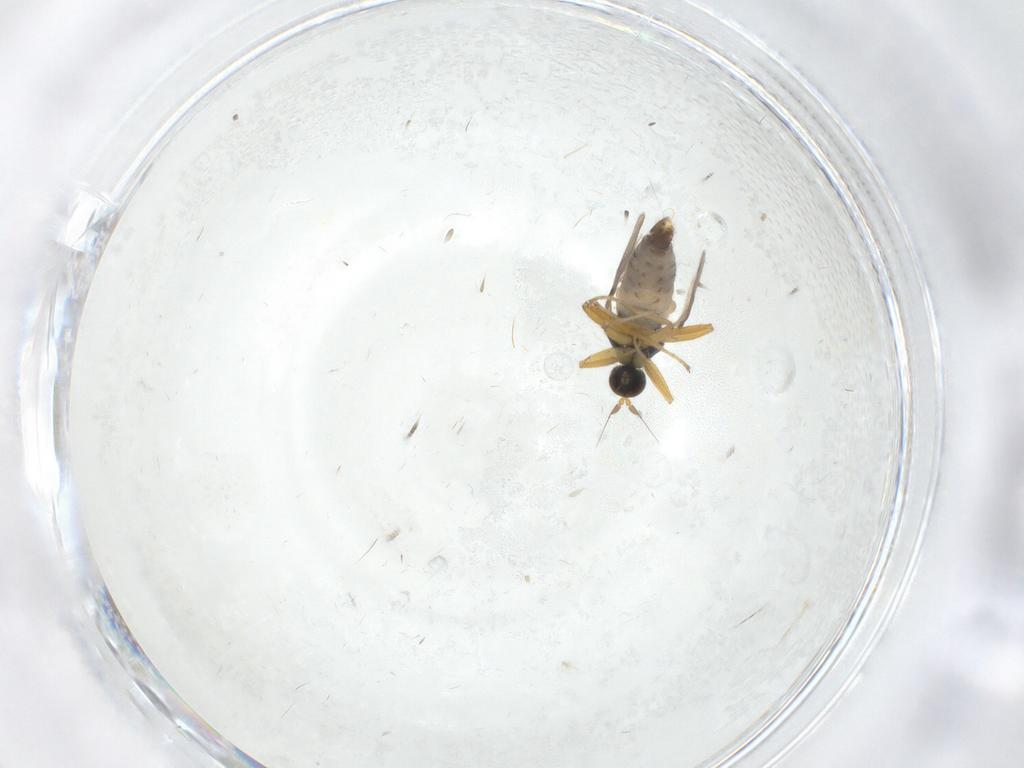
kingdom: Animalia
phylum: Arthropoda
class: Insecta
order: Diptera
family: Hybotidae
